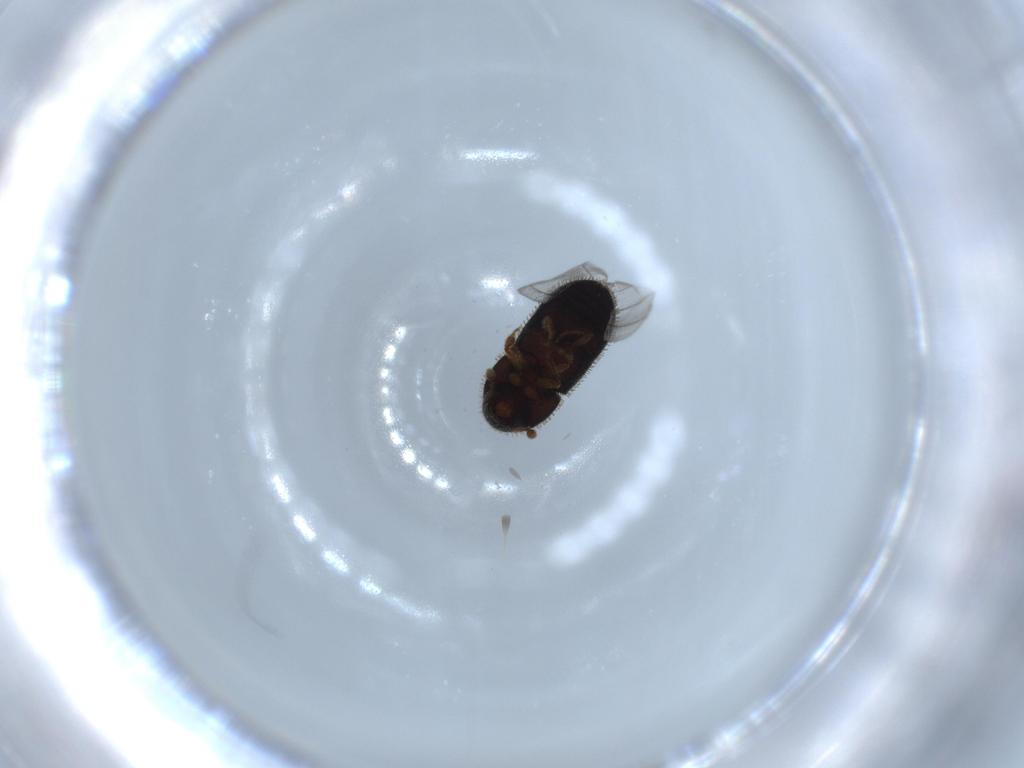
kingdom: Animalia
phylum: Arthropoda
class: Insecta
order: Coleoptera
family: Curculionidae
